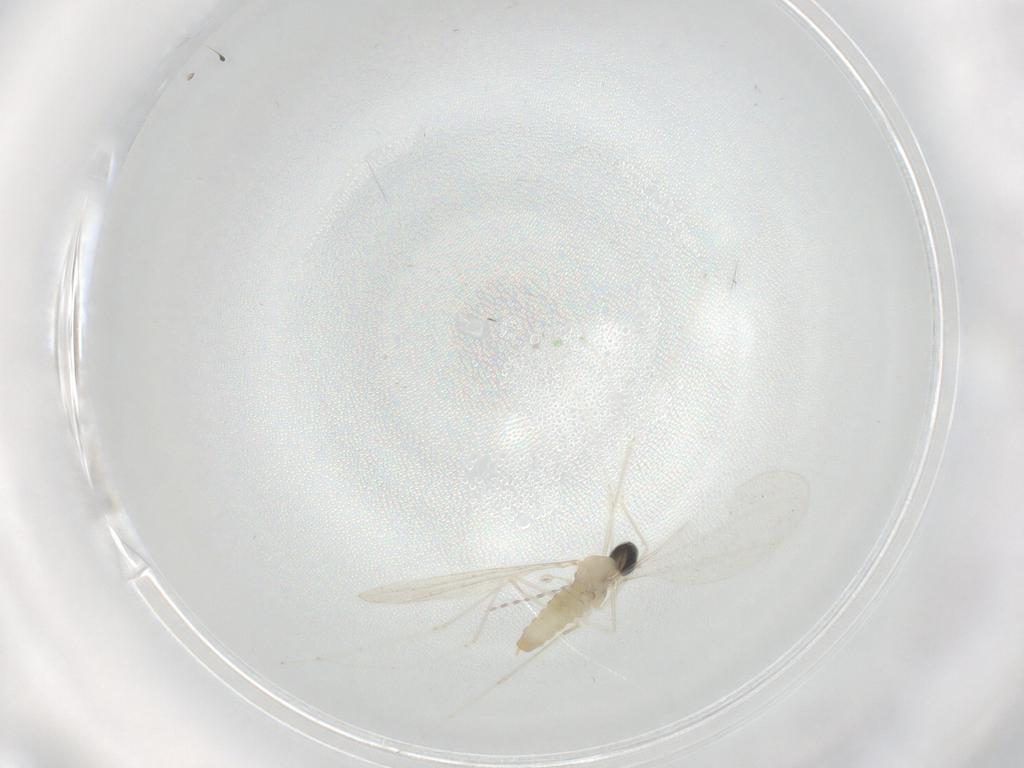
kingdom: Animalia
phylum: Arthropoda
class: Insecta
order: Diptera
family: Cecidomyiidae
